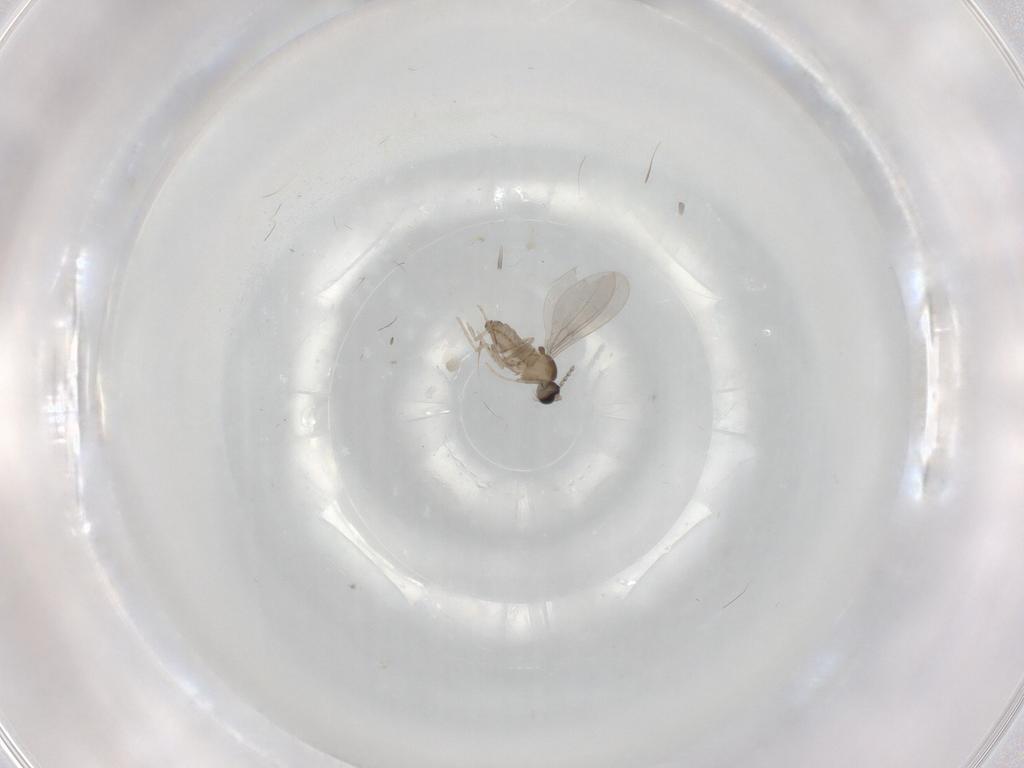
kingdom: Animalia
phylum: Arthropoda
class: Insecta
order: Diptera
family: Cecidomyiidae
